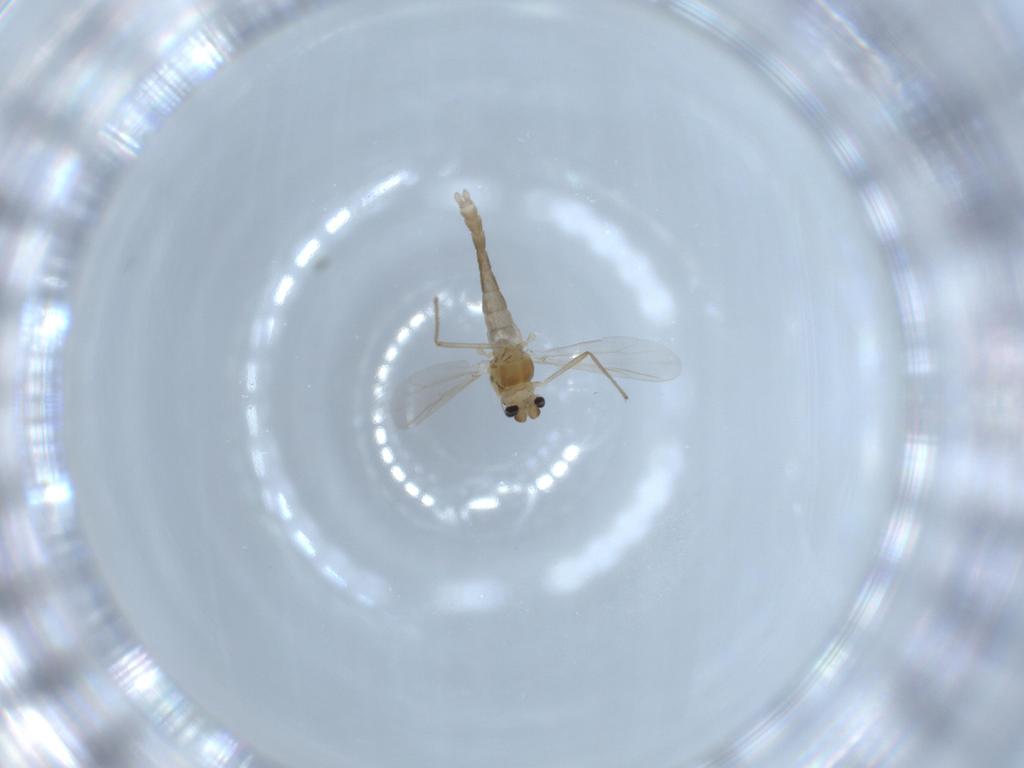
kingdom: Animalia
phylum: Arthropoda
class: Insecta
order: Diptera
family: Chironomidae
